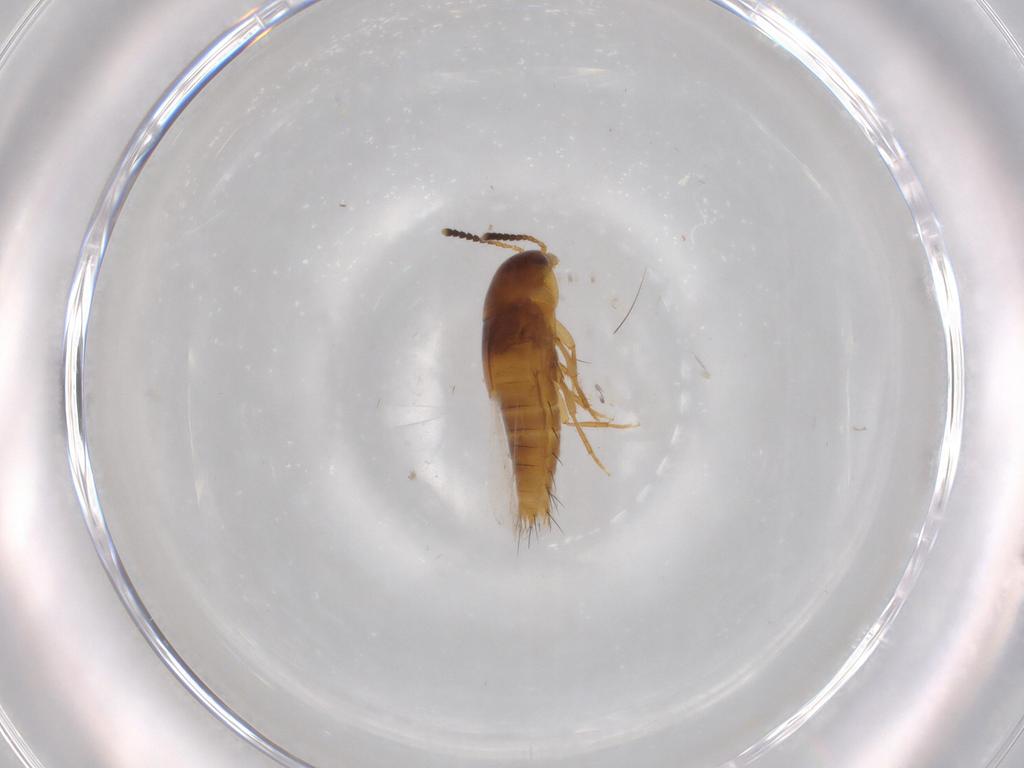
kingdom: Animalia
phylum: Arthropoda
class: Insecta
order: Coleoptera
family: Staphylinidae
